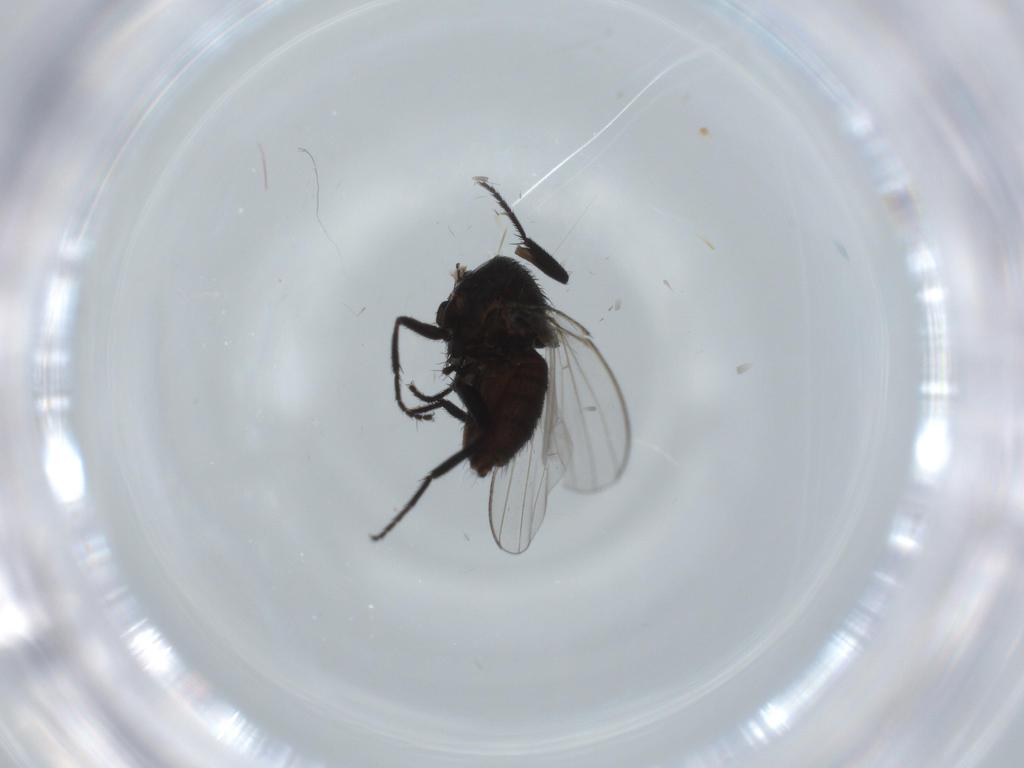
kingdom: Animalia
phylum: Arthropoda
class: Insecta
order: Diptera
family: Milichiidae
